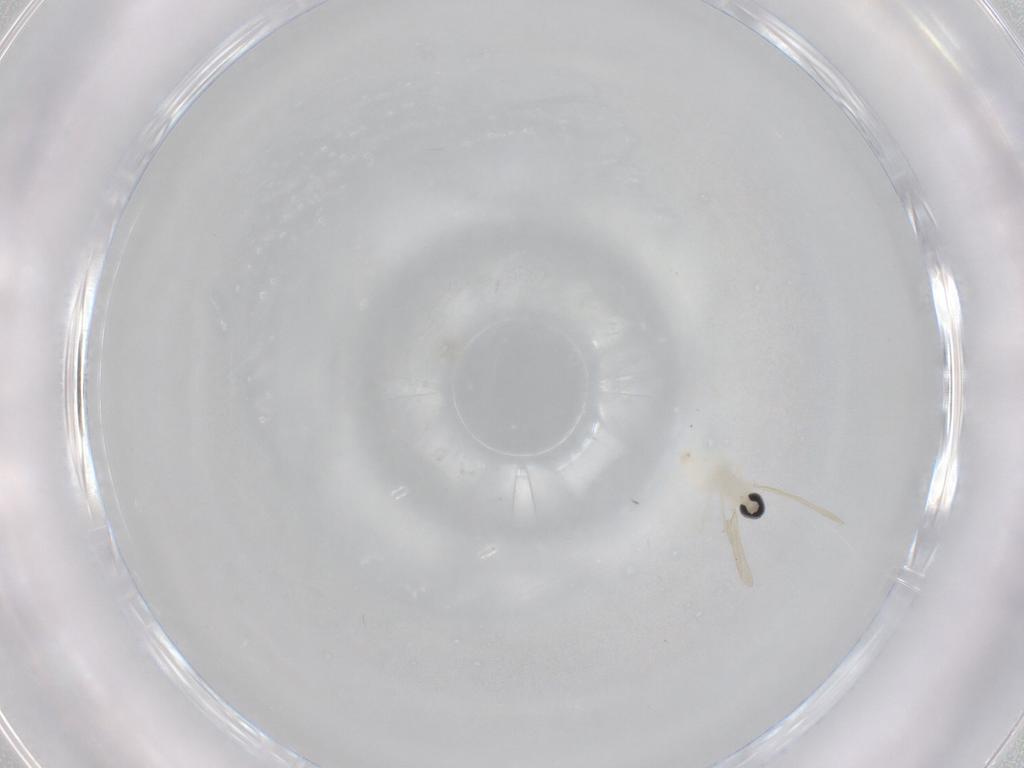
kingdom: Animalia
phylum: Arthropoda
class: Insecta
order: Diptera
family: Cecidomyiidae
